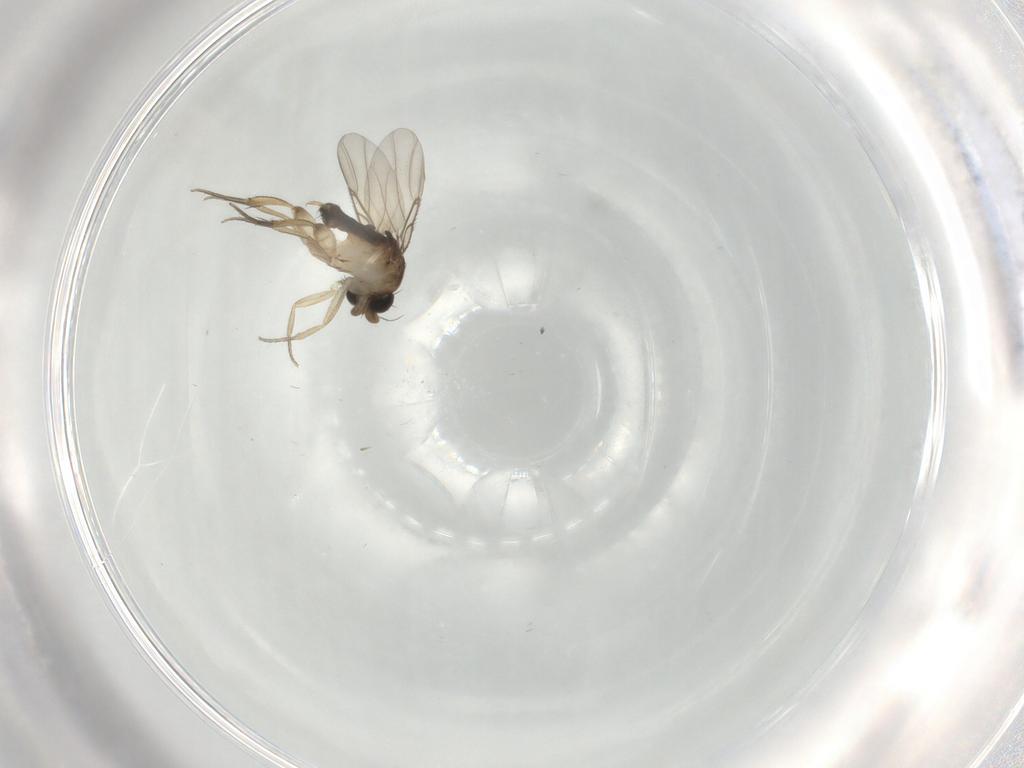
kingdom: Animalia
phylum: Arthropoda
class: Insecta
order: Diptera
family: Phoridae
